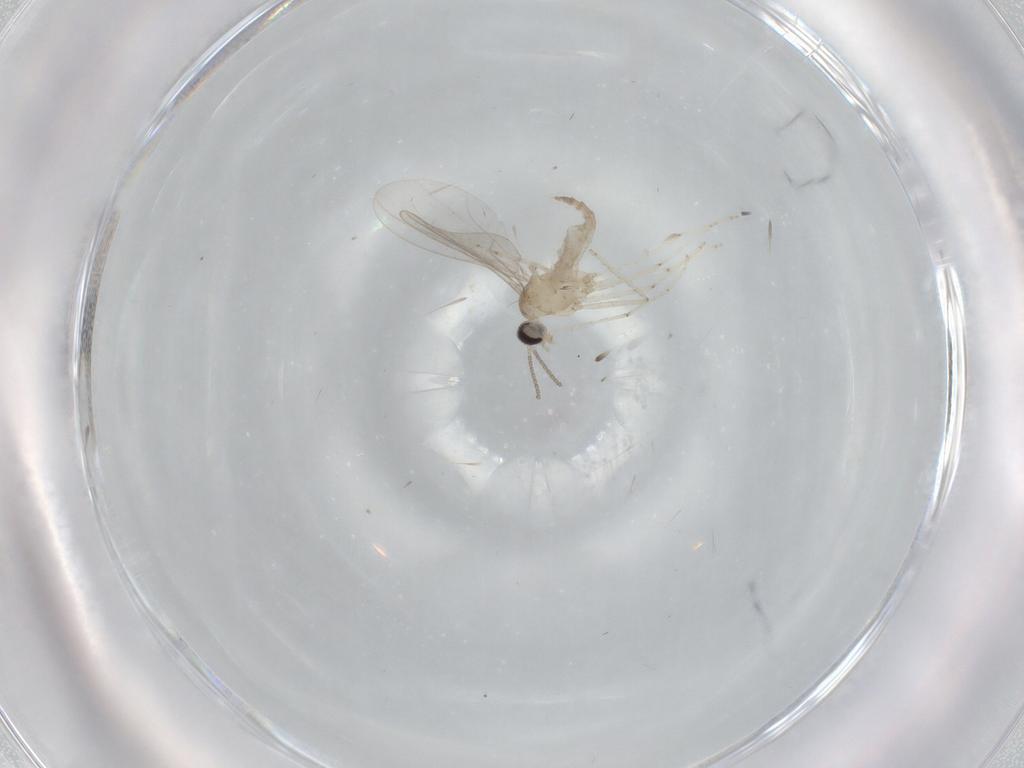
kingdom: Animalia
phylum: Arthropoda
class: Insecta
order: Diptera
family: Cecidomyiidae
